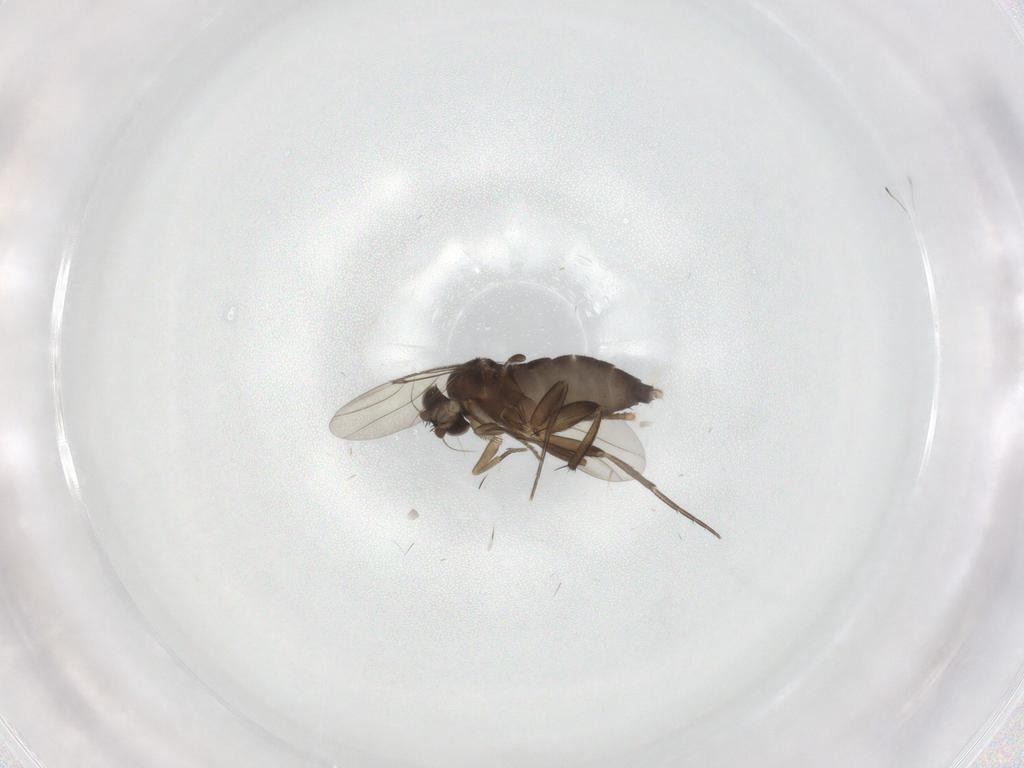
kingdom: Animalia
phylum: Arthropoda
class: Insecta
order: Diptera
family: Phoridae
